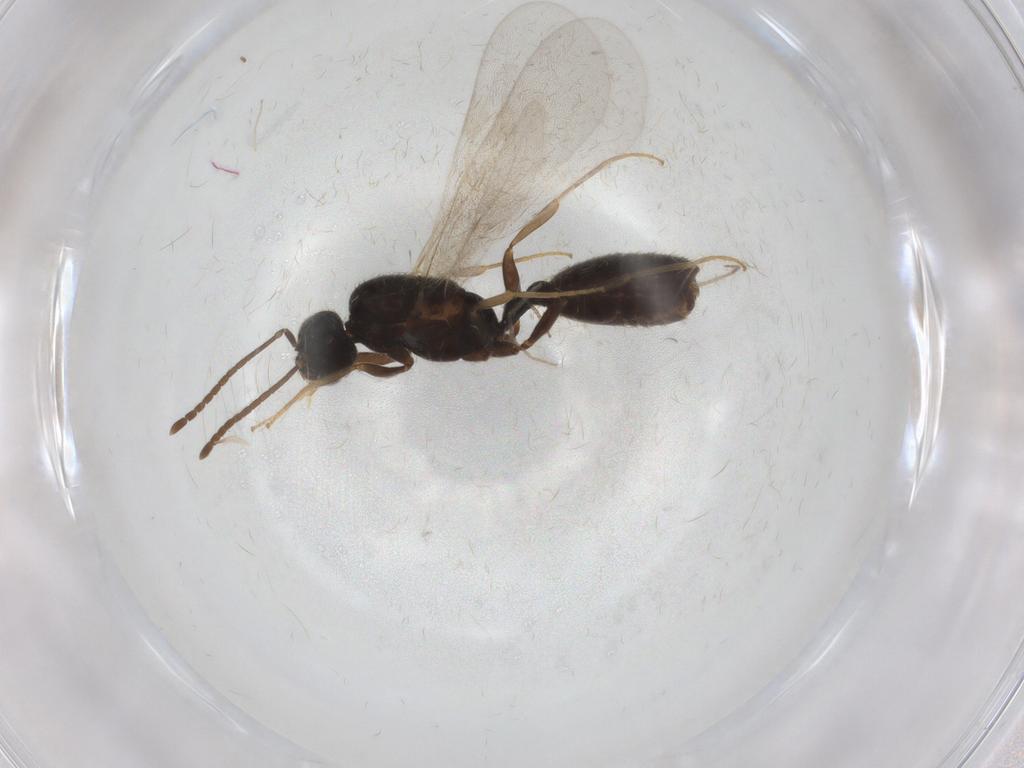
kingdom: Animalia
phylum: Arthropoda
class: Insecta
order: Hymenoptera
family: Formicidae
